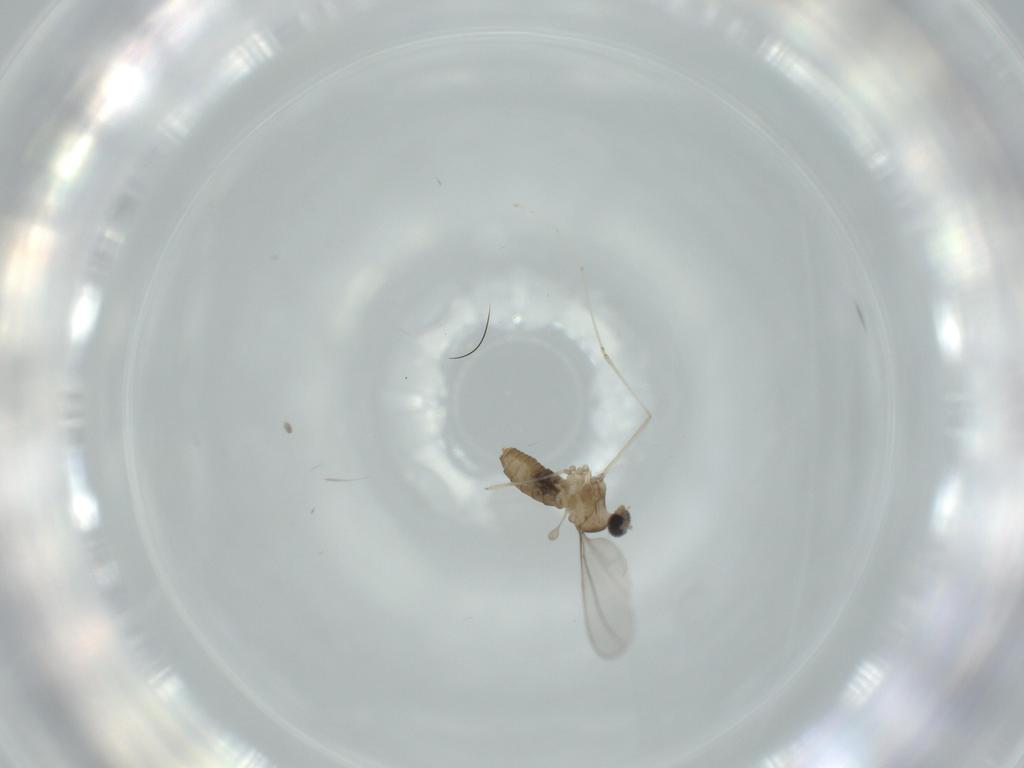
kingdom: Animalia
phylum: Arthropoda
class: Insecta
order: Diptera
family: Cecidomyiidae
